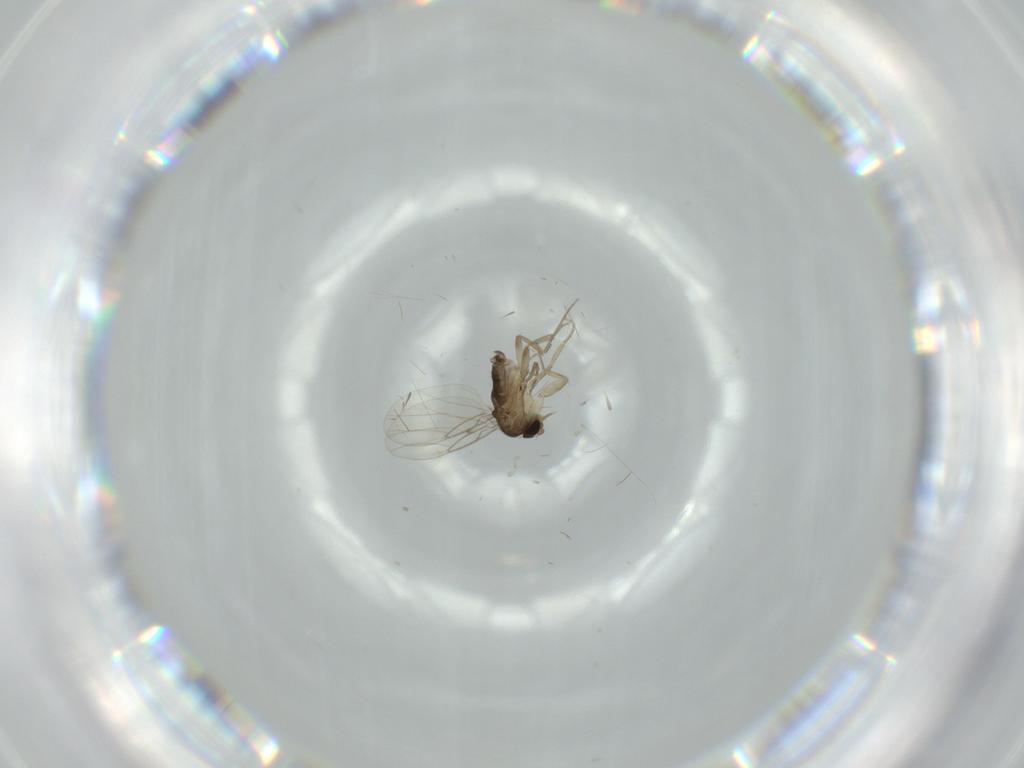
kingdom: Animalia
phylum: Arthropoda
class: Insecta
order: Diptera
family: Phoridae
